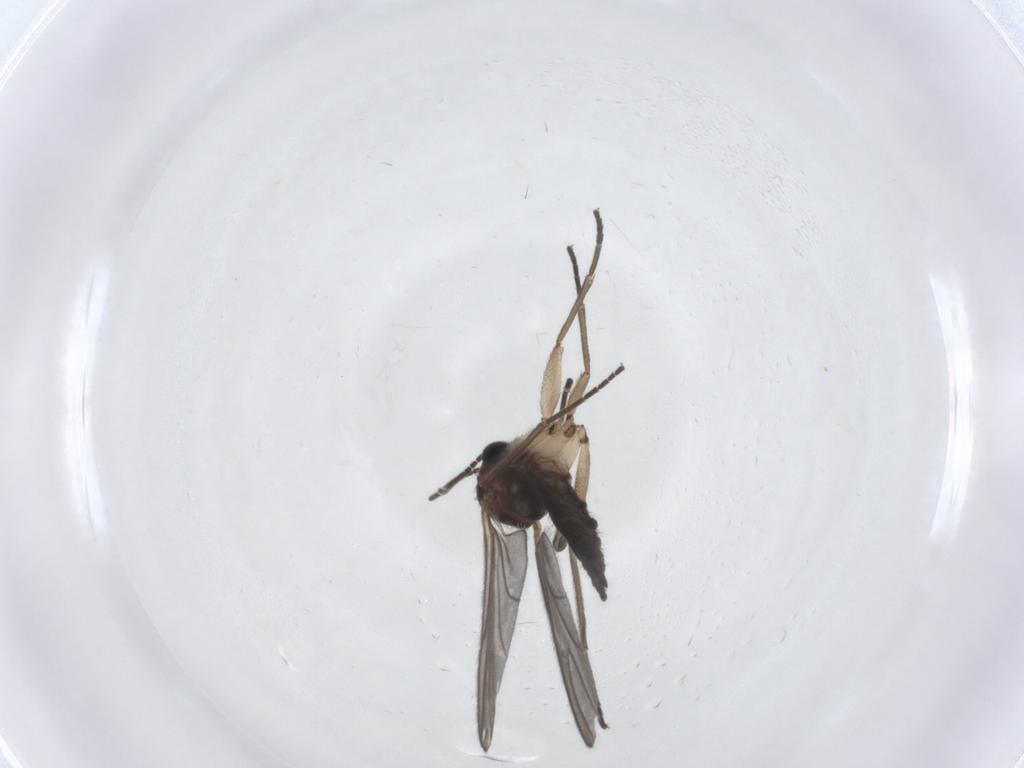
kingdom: Animalia
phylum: Arthropoda
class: Insecta
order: Diptera
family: Sciaridae
